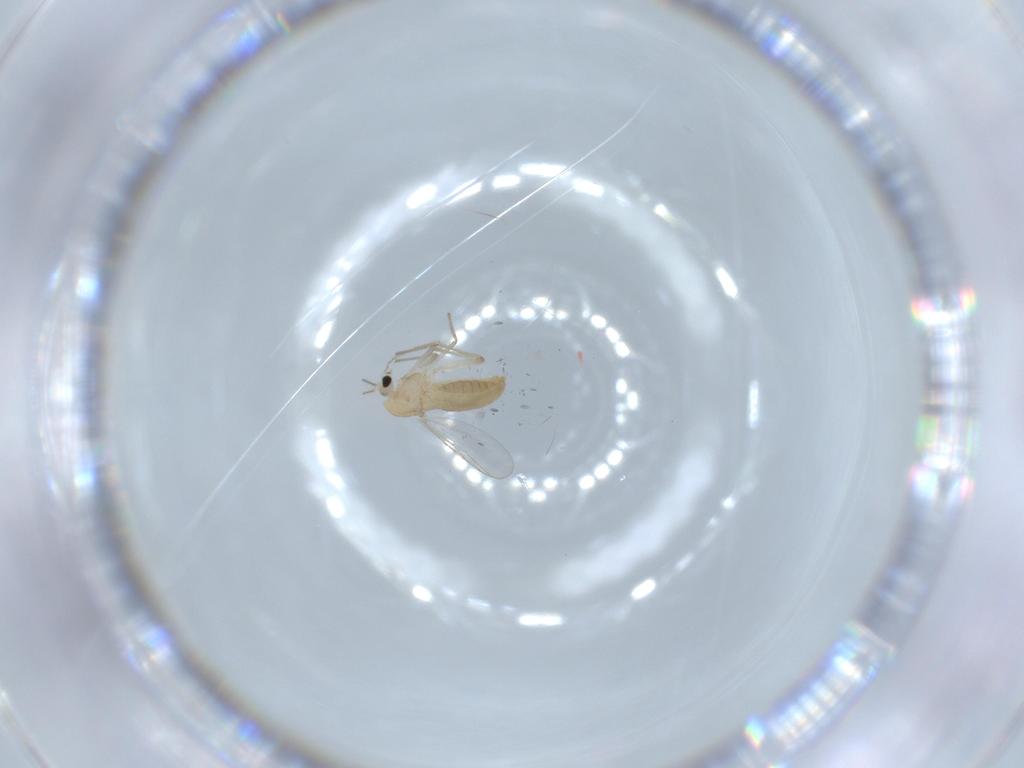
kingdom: Animalia
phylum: Arthropoda
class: Insecta
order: Diptera
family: Chironomidae
